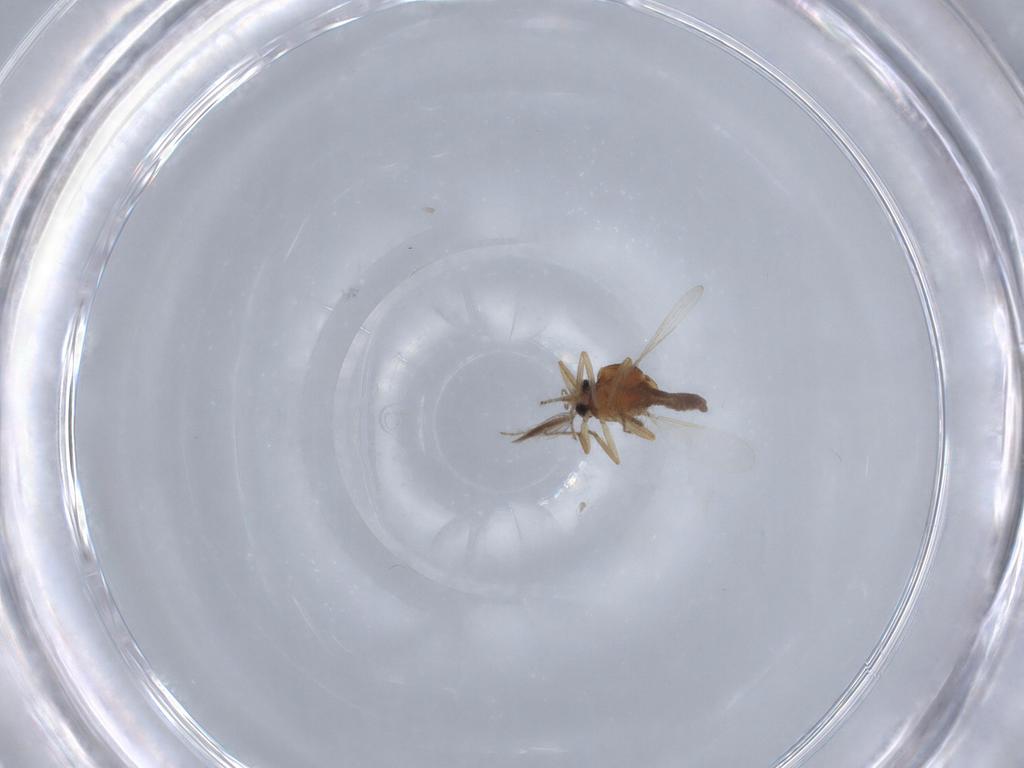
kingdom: Animalia
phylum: Arthropoda
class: Insecta
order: Diptera
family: Ceratopogonidae
